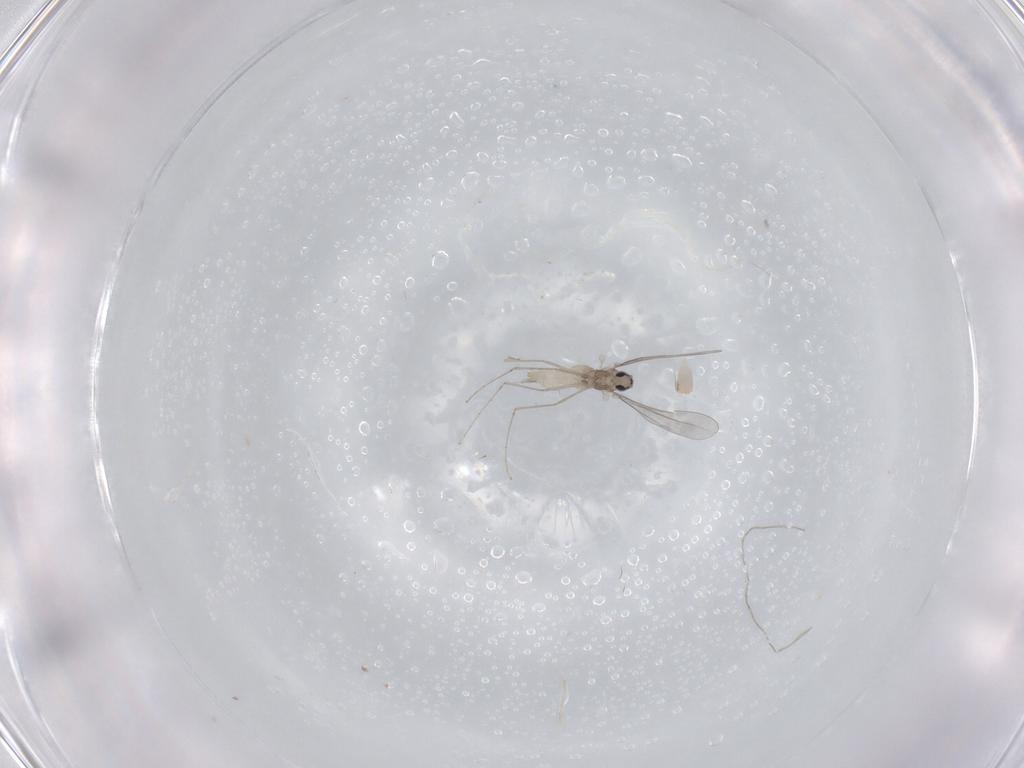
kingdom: Animalia
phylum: Arthropoda
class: Insecta
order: Diptera
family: Cecidomyiidae
